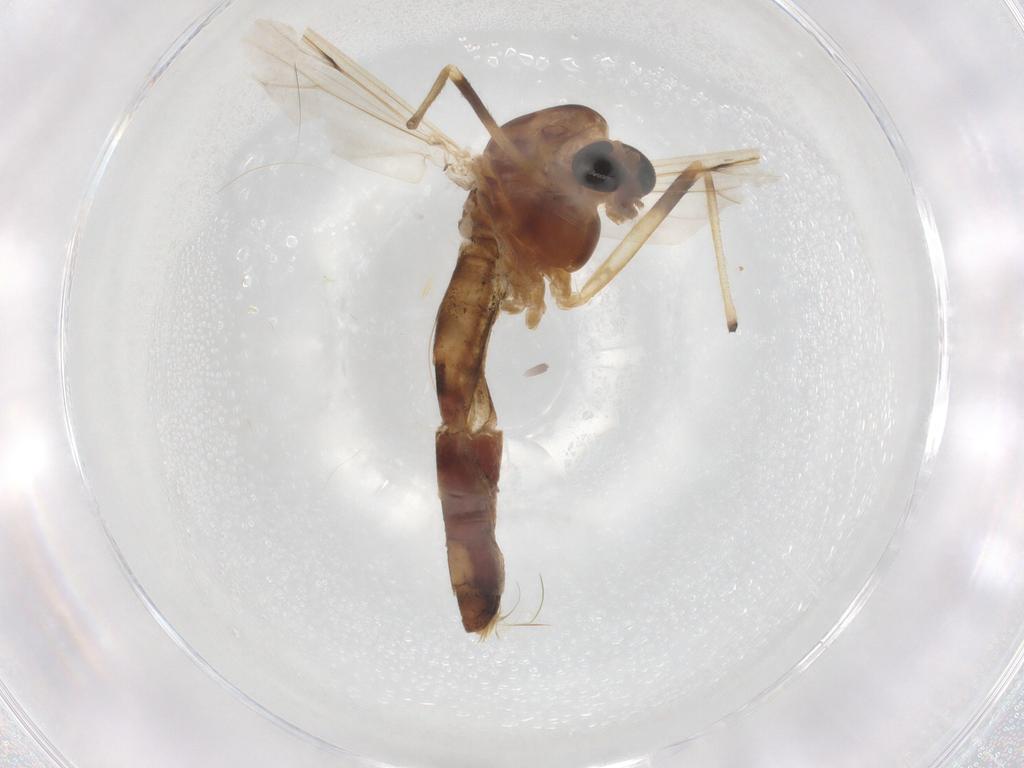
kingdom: Animalia
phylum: Arthropoda
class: Insecta
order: Diptera
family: Chironomidae
